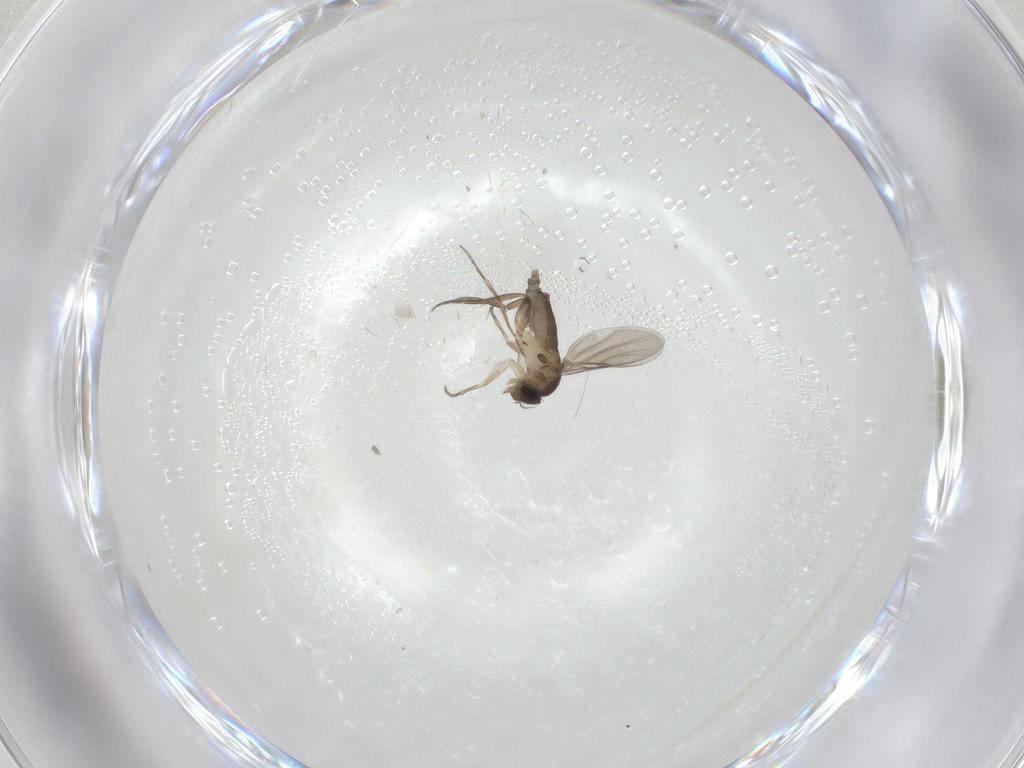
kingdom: Animalia
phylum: Arthropoda
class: Insecta
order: Diptera
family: Phoridae
